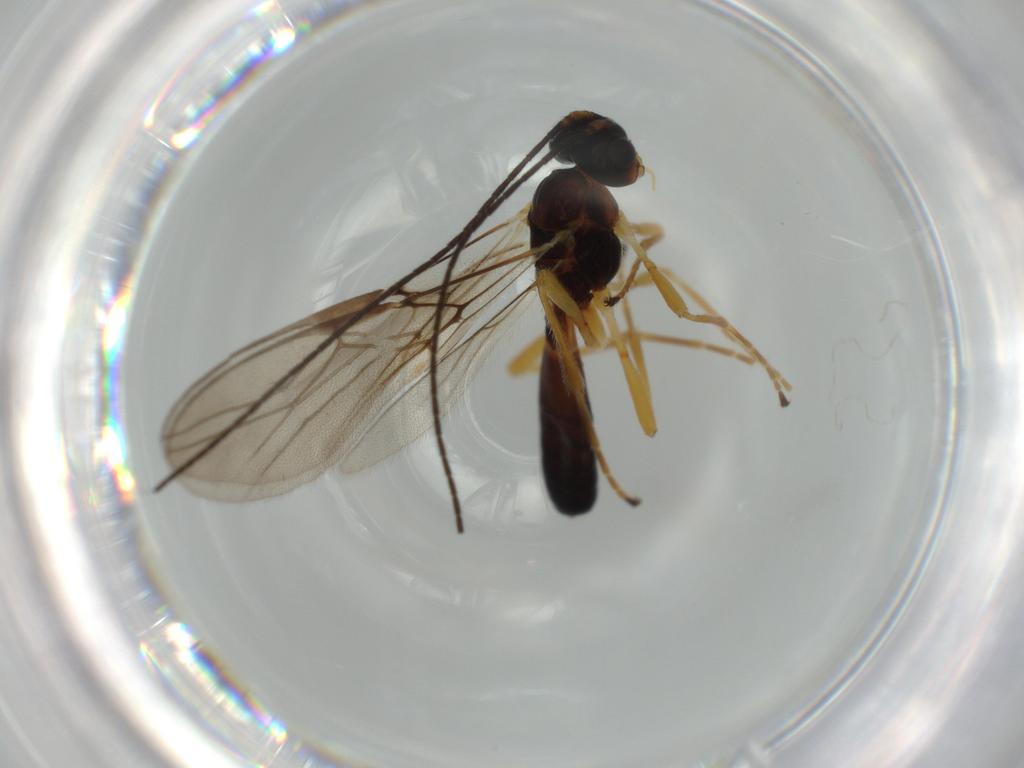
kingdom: Animalia
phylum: Arthropoda
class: Insecta
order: Hymenoptera
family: Braconidae
